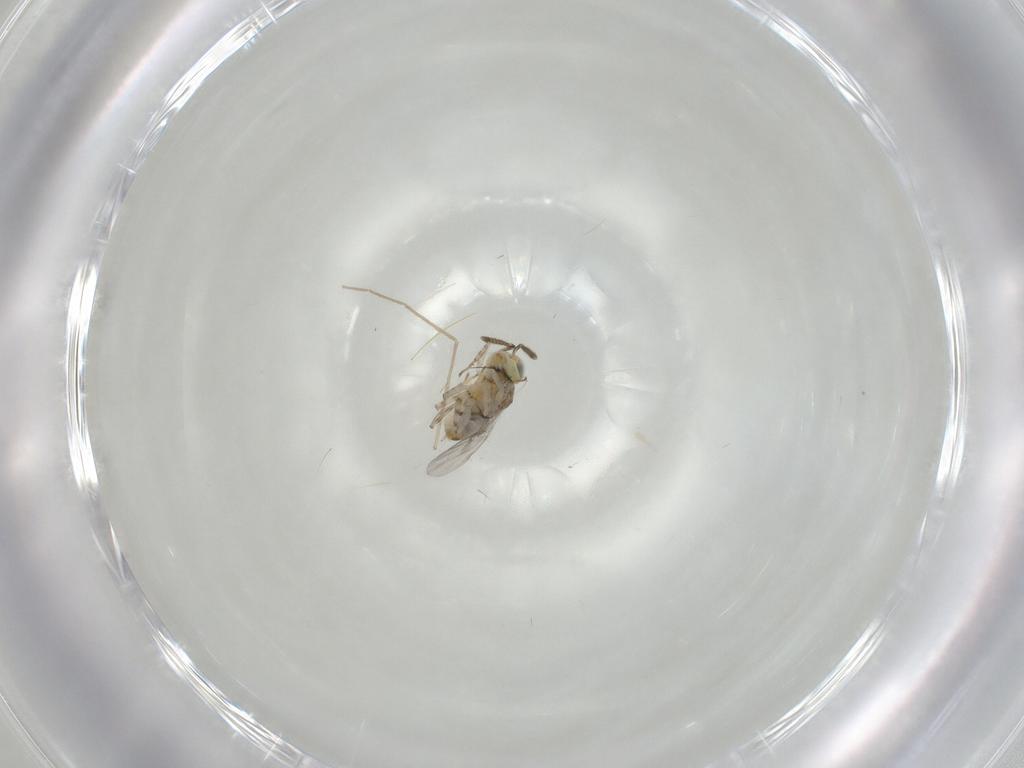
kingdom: Animalia
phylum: Arthropoda
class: Insecta
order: Hymenoptera
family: Encyrtidae
